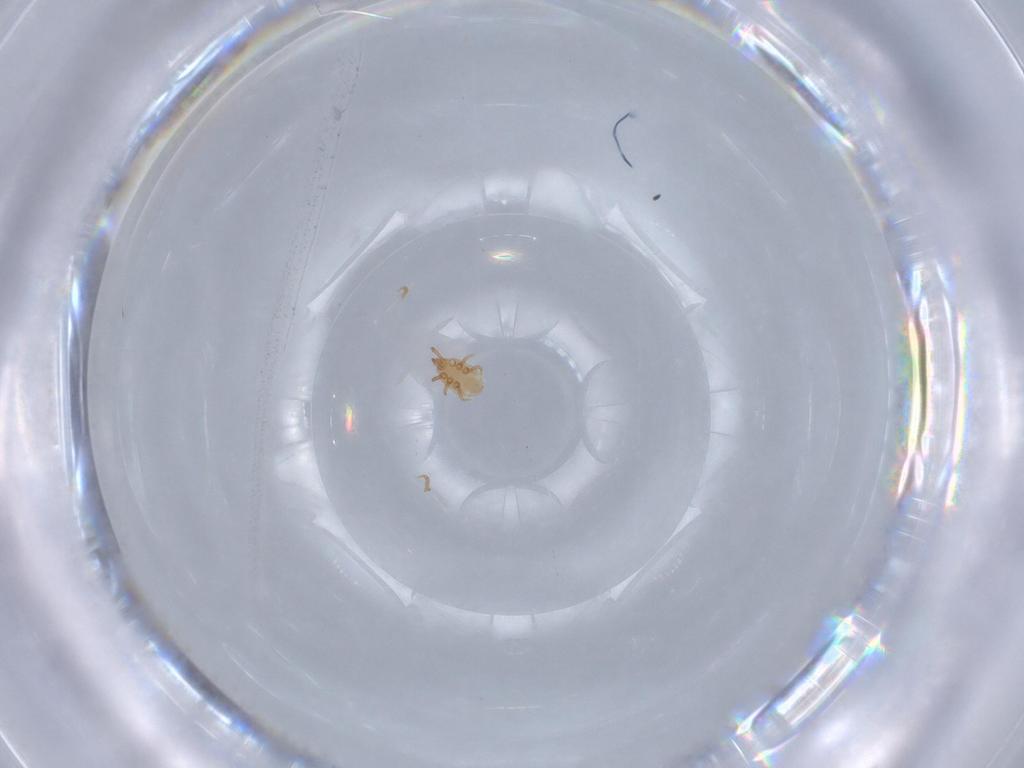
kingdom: Animalia
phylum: Arthropoda
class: Arachnida
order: Mesostigmata
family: Dinychidae
